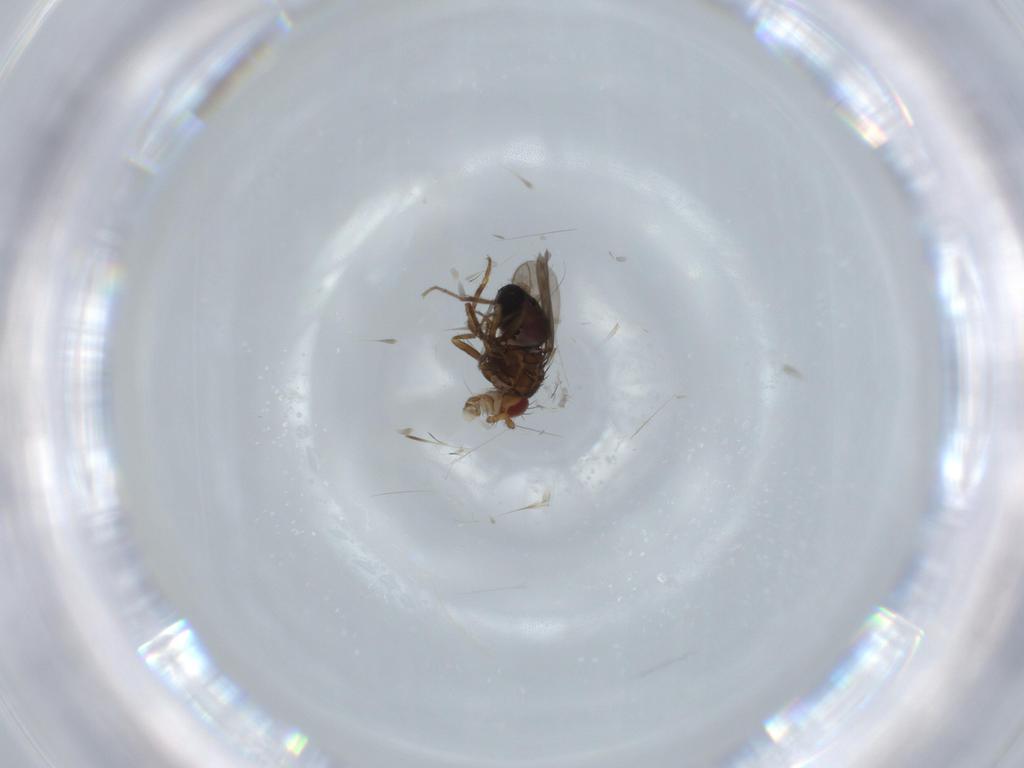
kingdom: Animalia
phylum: Arthropoda
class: Insecta
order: Diptera
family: Sphaeroceridae
